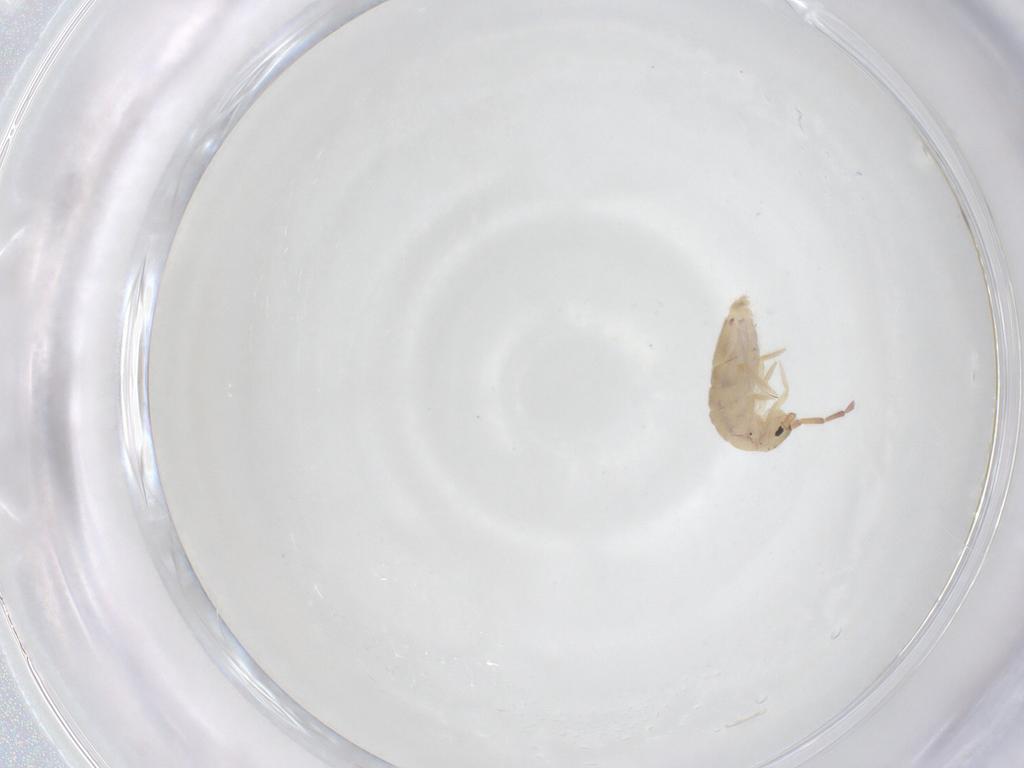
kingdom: Animalia
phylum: Arthropoda
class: Collembola
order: Entomobryomorpha
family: Entomobryidae
